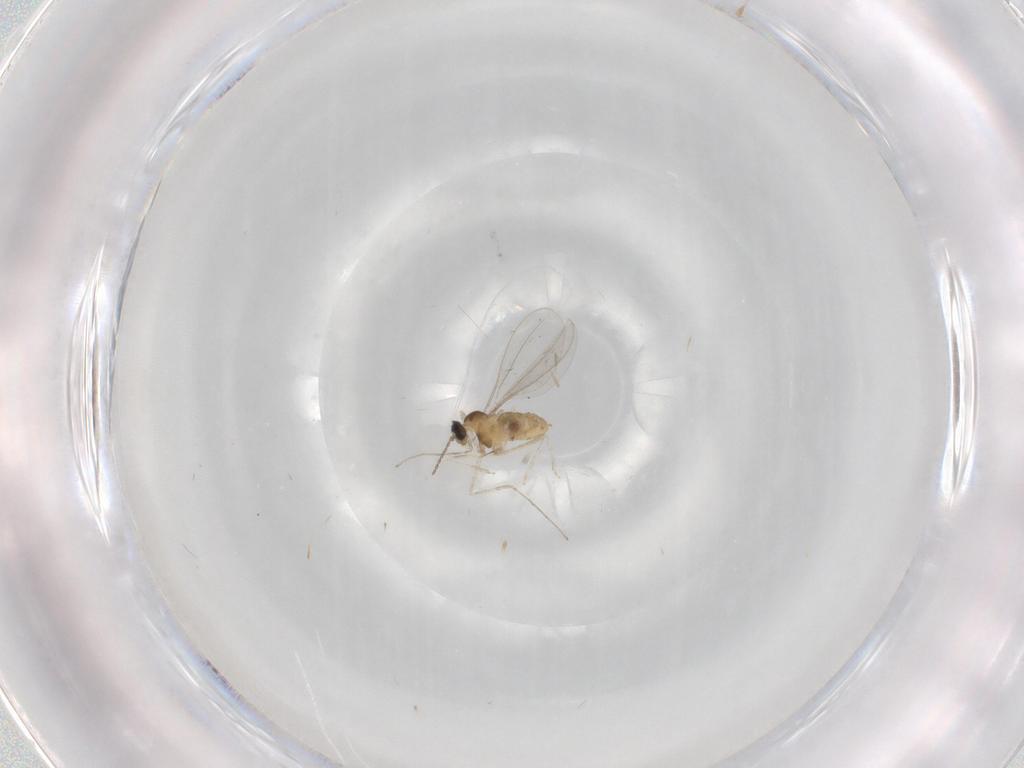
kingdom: Animalia
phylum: Arthropoda
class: Insecta
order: Diptera
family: Cecidomyiidae
